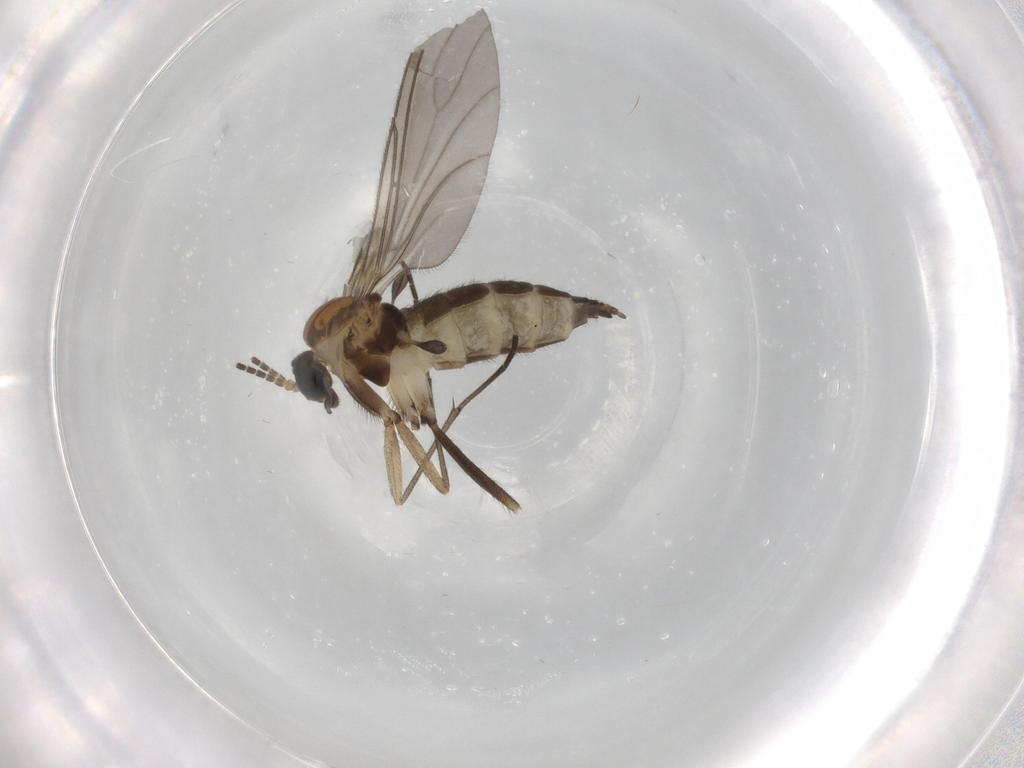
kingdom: Animalia
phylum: Arthropoda
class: Insecta
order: Diptera
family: Sciaridae
